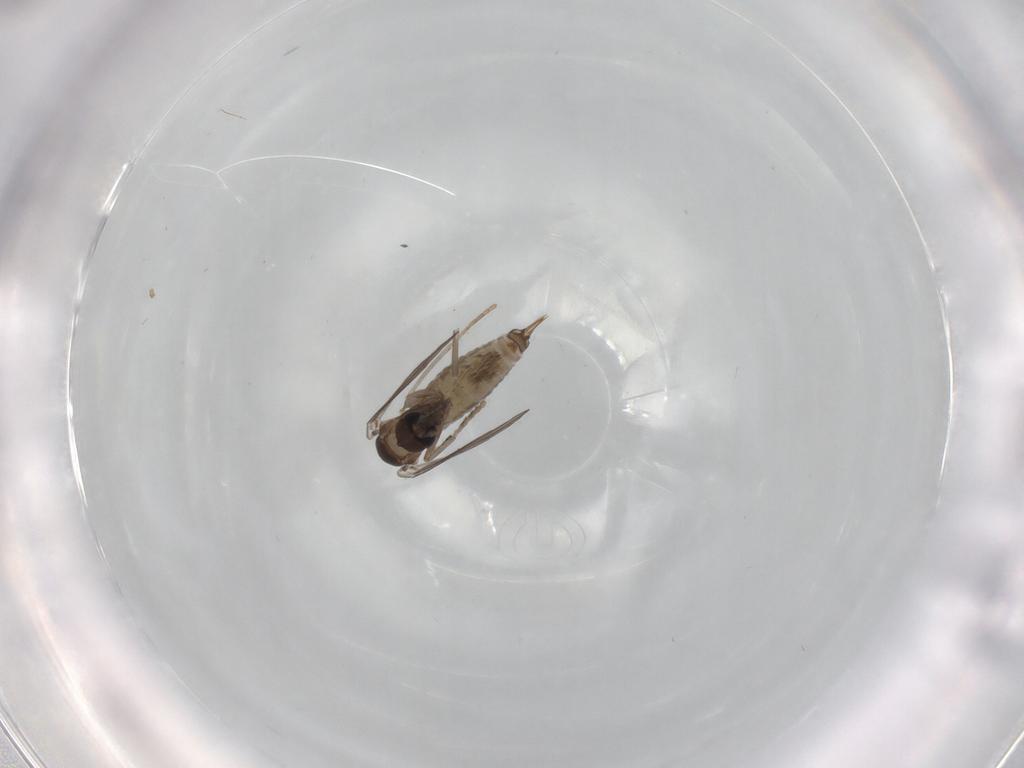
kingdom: Animalia
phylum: Arthropoda
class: Insecta
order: Diptera
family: Psychodidae
